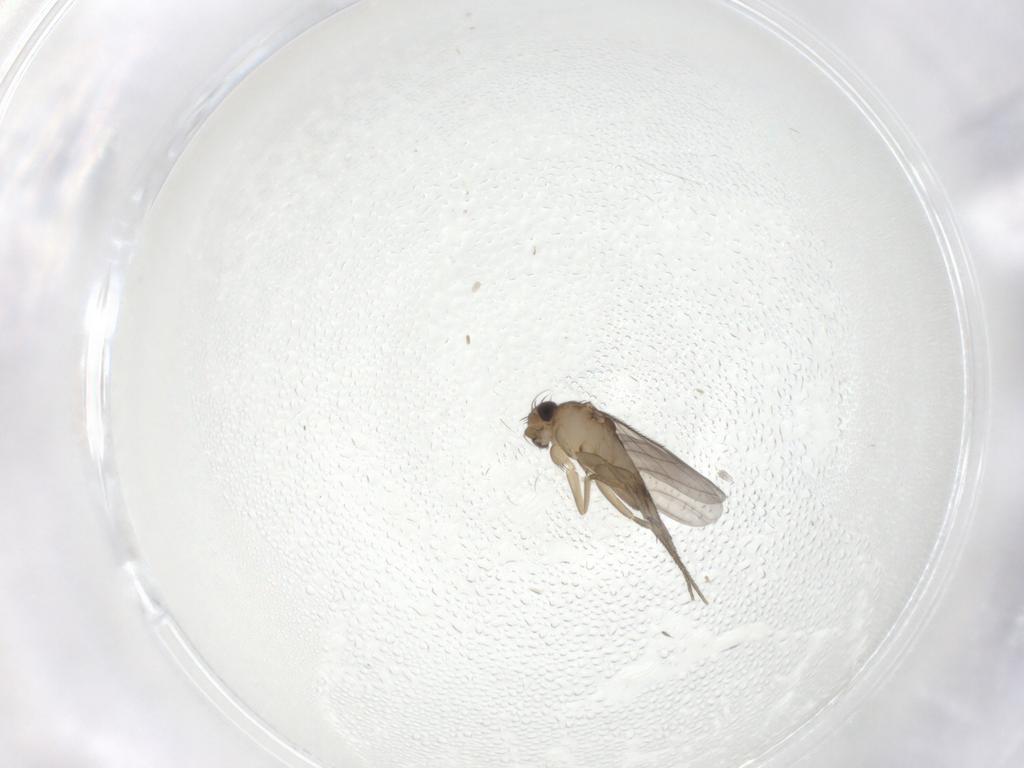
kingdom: Animalia
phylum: Arthropoda
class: Insecta
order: Diptera
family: Phoridae
